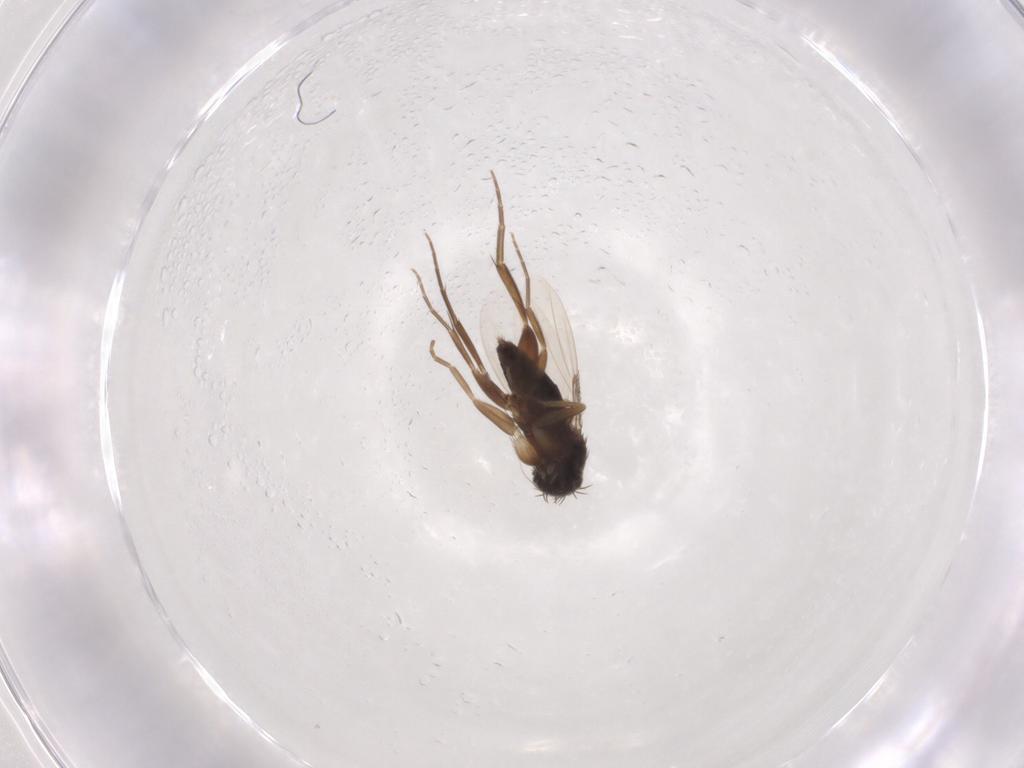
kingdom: Animalia
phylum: Arthropoda
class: Insecta
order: Diptera
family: Phoridae
